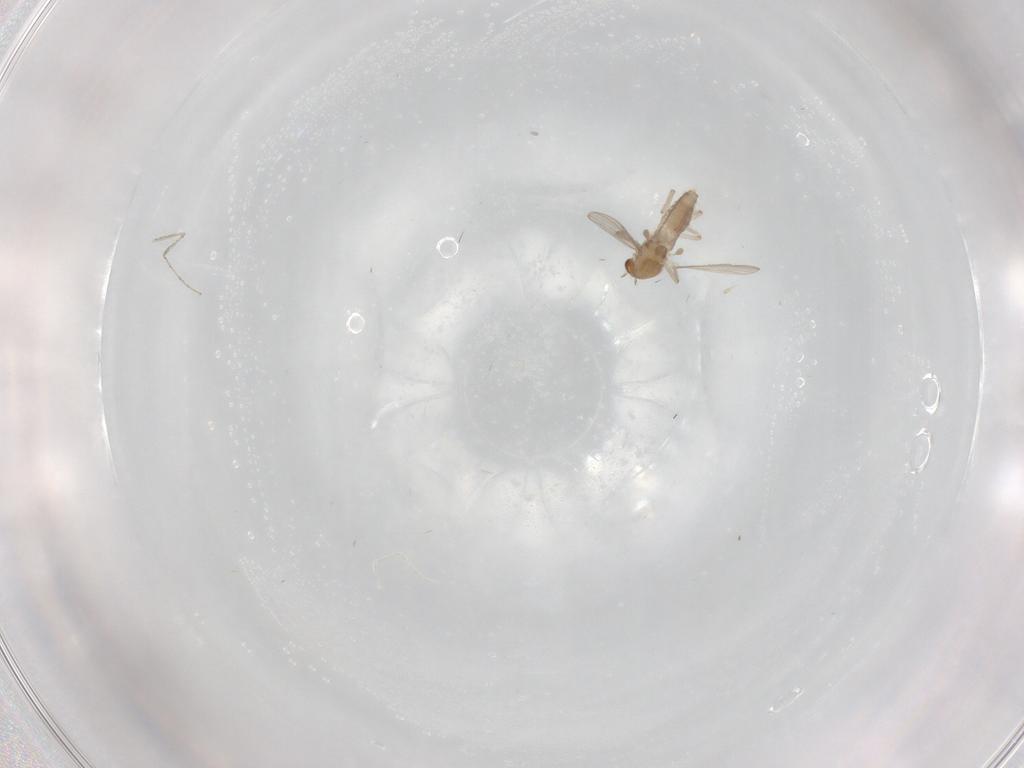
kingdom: Animalia
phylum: Arthropoda
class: Insecta
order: Diptera
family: Chironomidae
